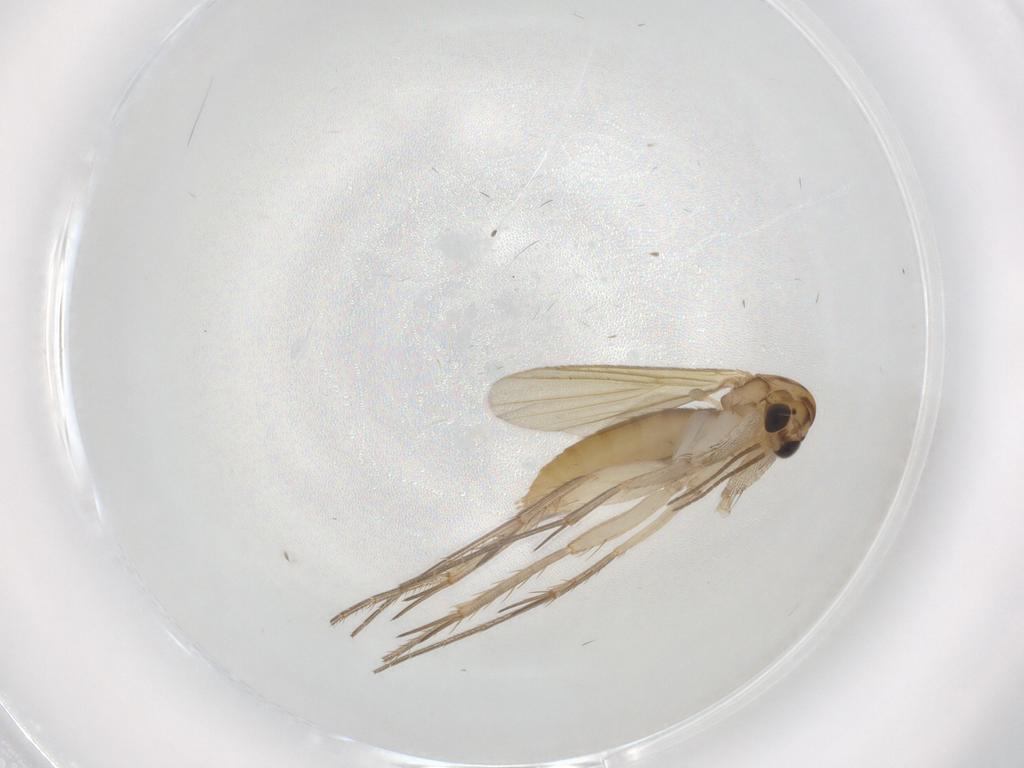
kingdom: Animalia
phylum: Arthropoda
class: Insecta
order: Diptera
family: Mycetophilidae
